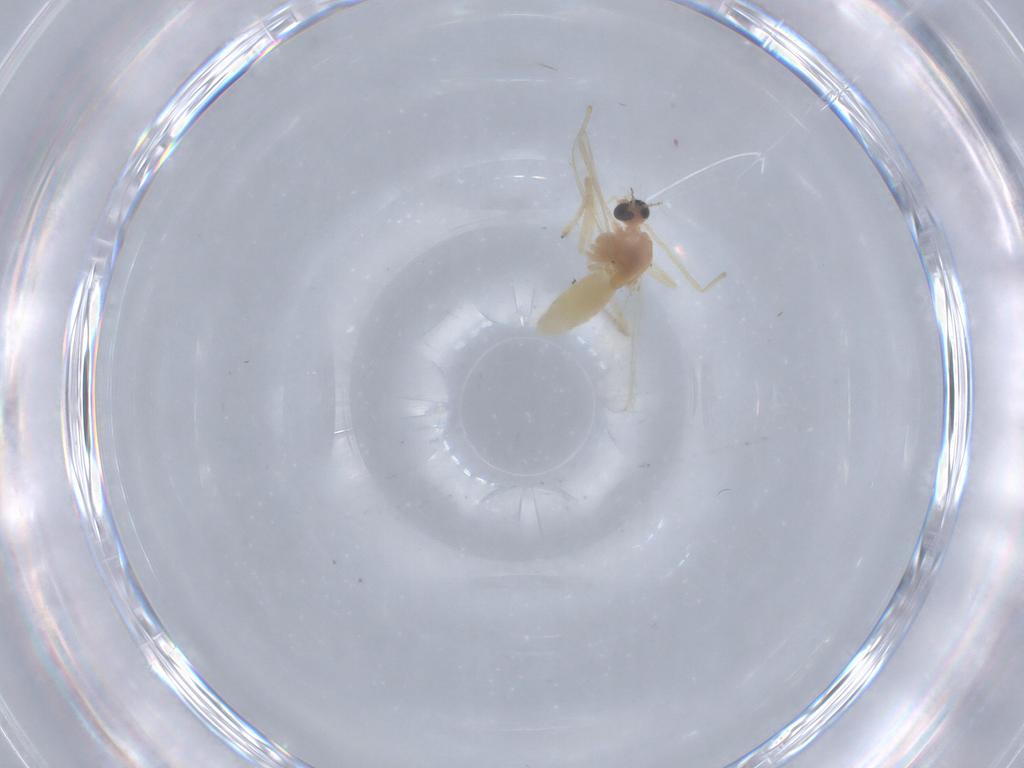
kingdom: Animalia
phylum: Arthropoda
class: Insecta
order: Diptera
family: Chironomidae
